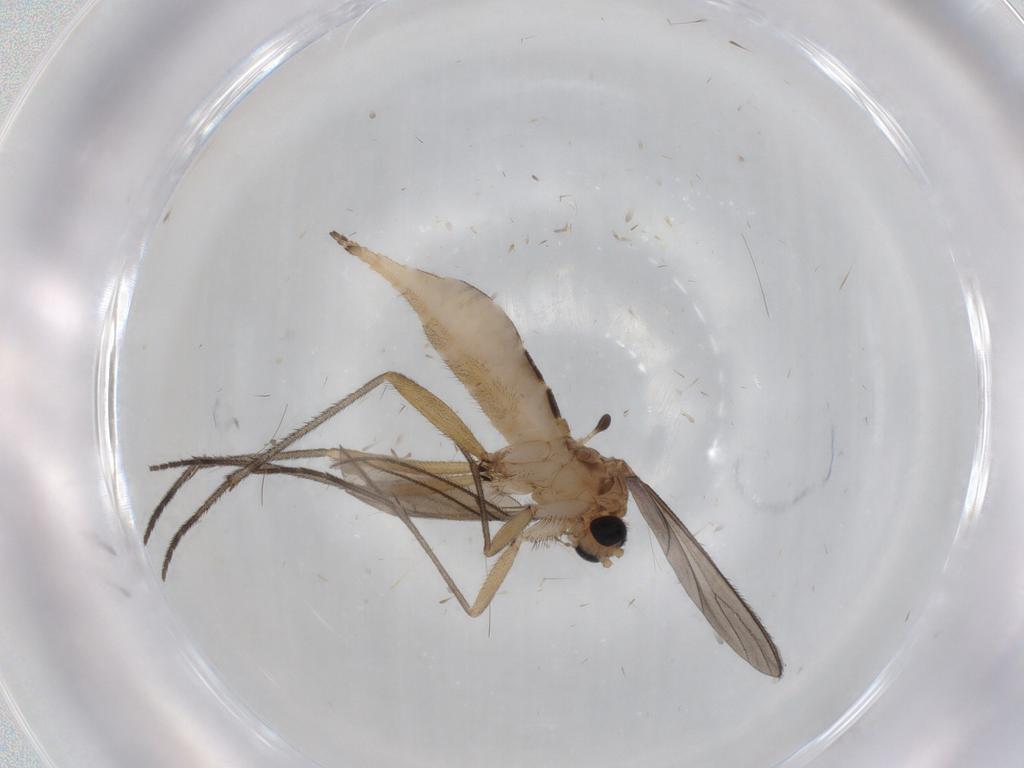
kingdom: Animalia
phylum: Arthropoda
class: Insecta
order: Diptera
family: Sciaridae
